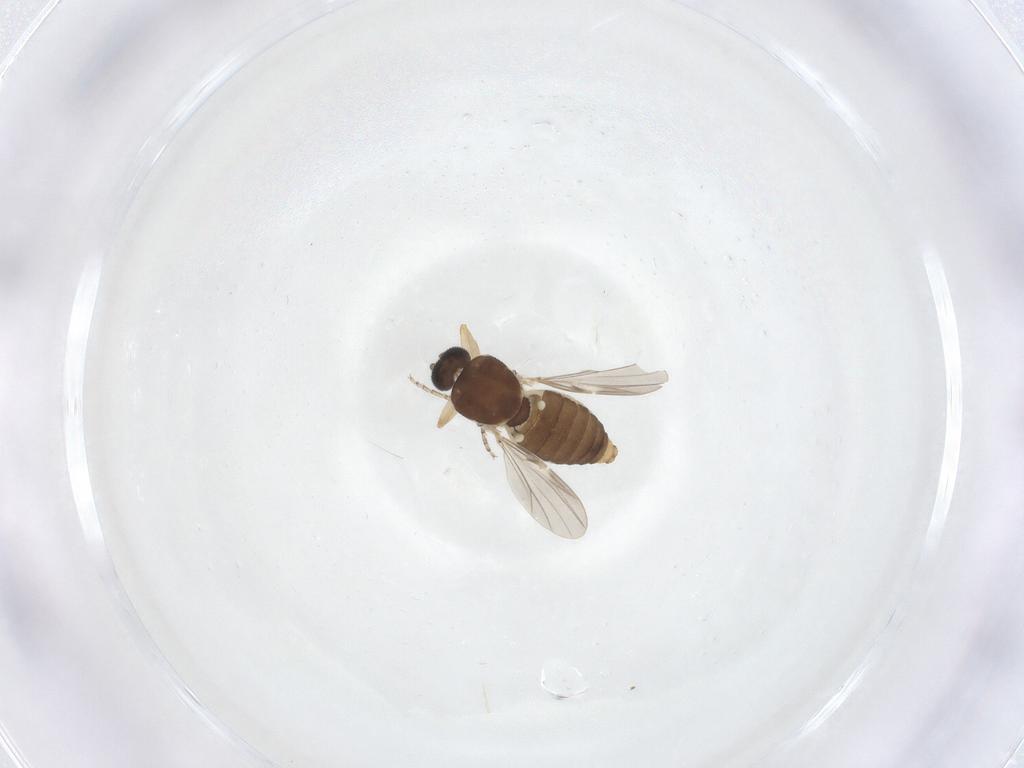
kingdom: Animalia
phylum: Arthropoda
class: Insecta
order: Diptera
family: Ceratopogonidae
